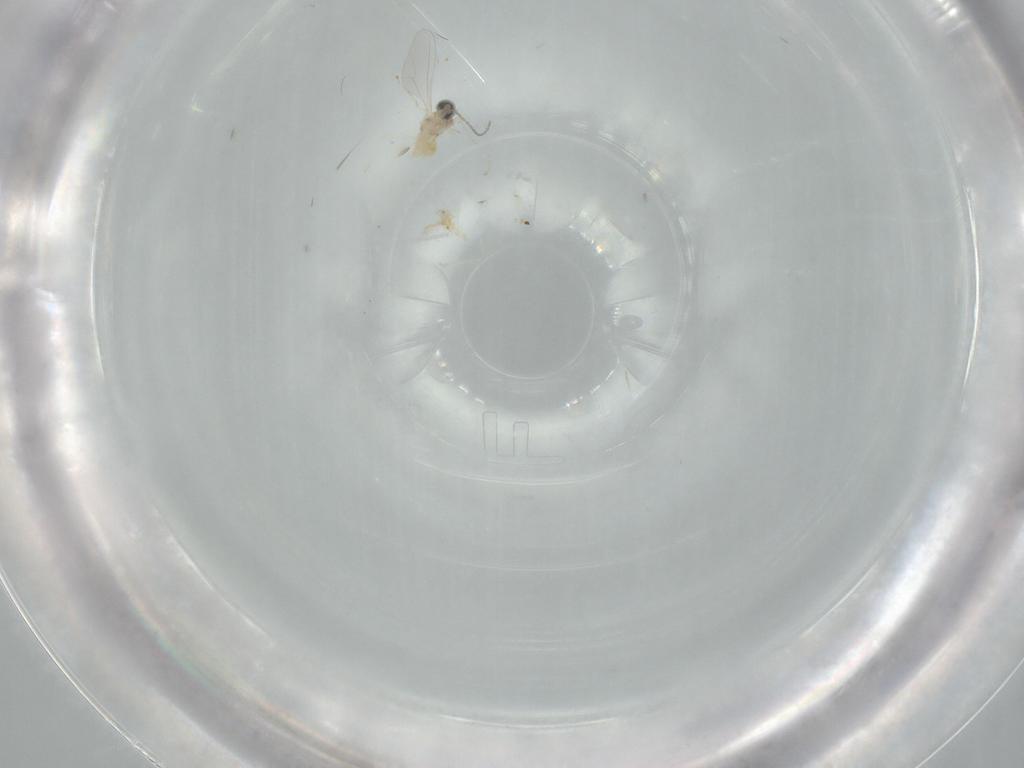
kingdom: Animalia
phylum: Arthropoda
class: Insecta
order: Diptera
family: Cecidomyiidae
